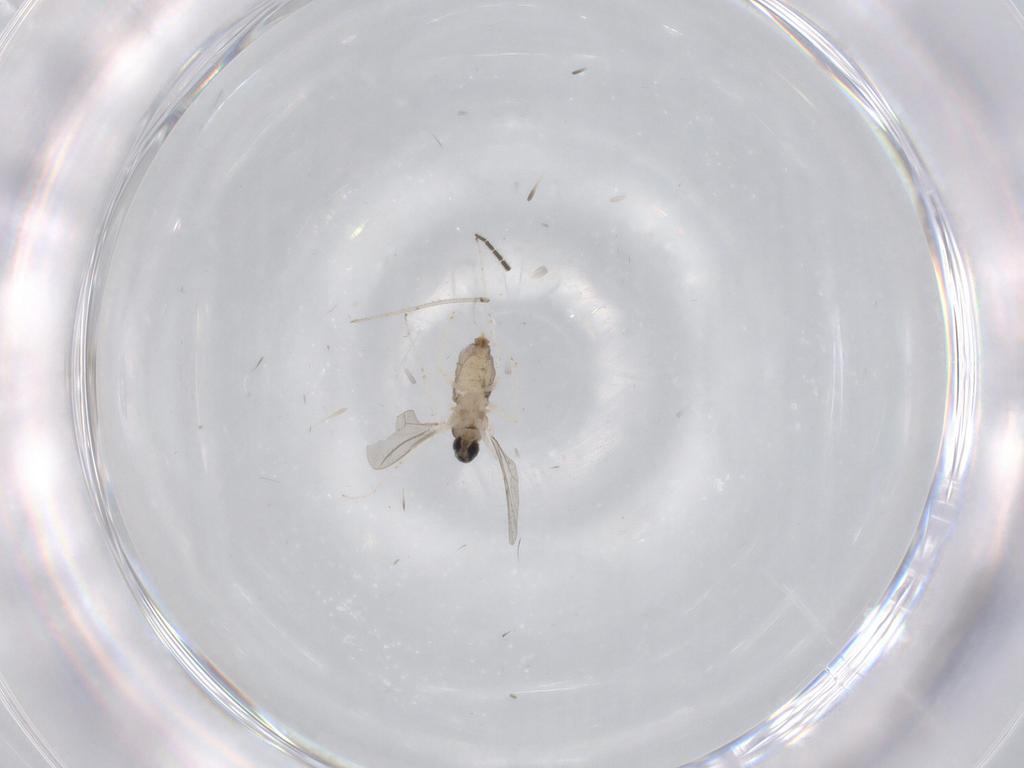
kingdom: Animalia
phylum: Arthropoda
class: Insecta
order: Diptera
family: Sciaridae
